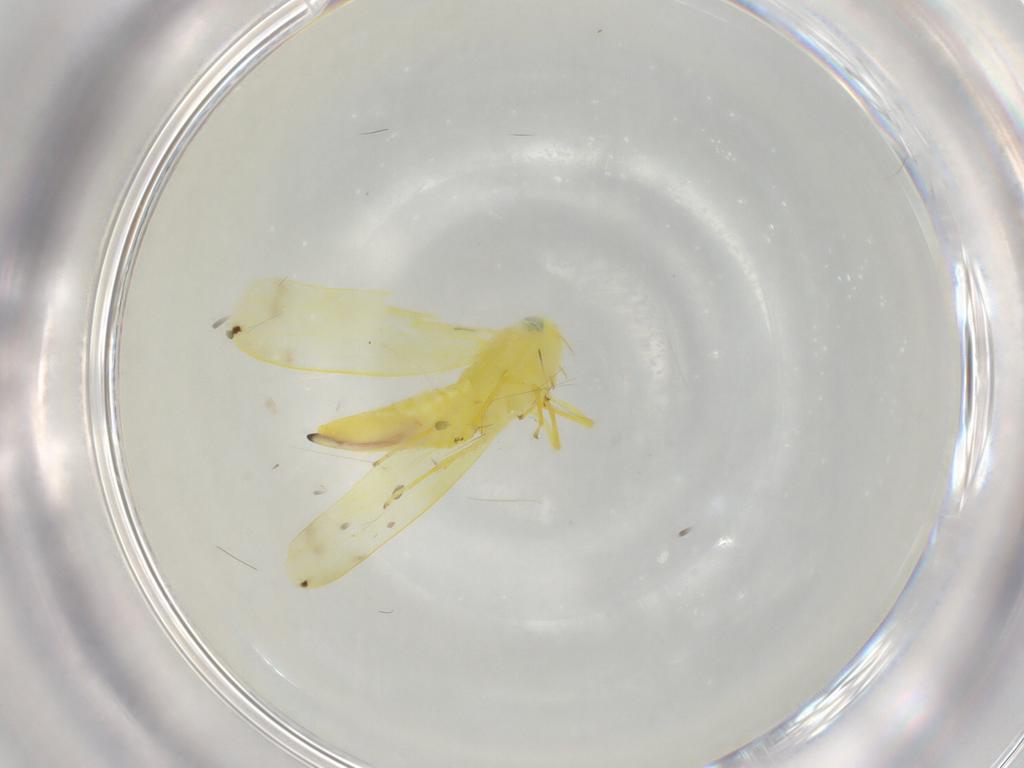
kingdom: Animalia
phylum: Arthropoda
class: Insecta
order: Hemiptera
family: Cicadellidae
